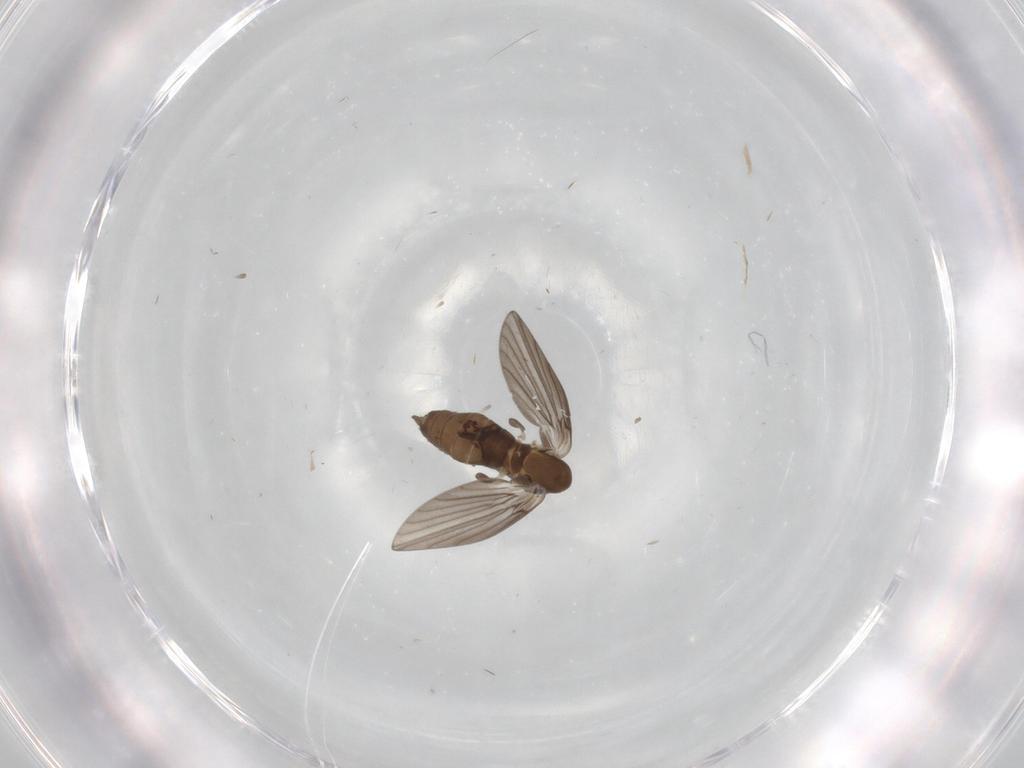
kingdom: Animalia
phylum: Arthropoda
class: Insecta
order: Diptera
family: Psychodidae
